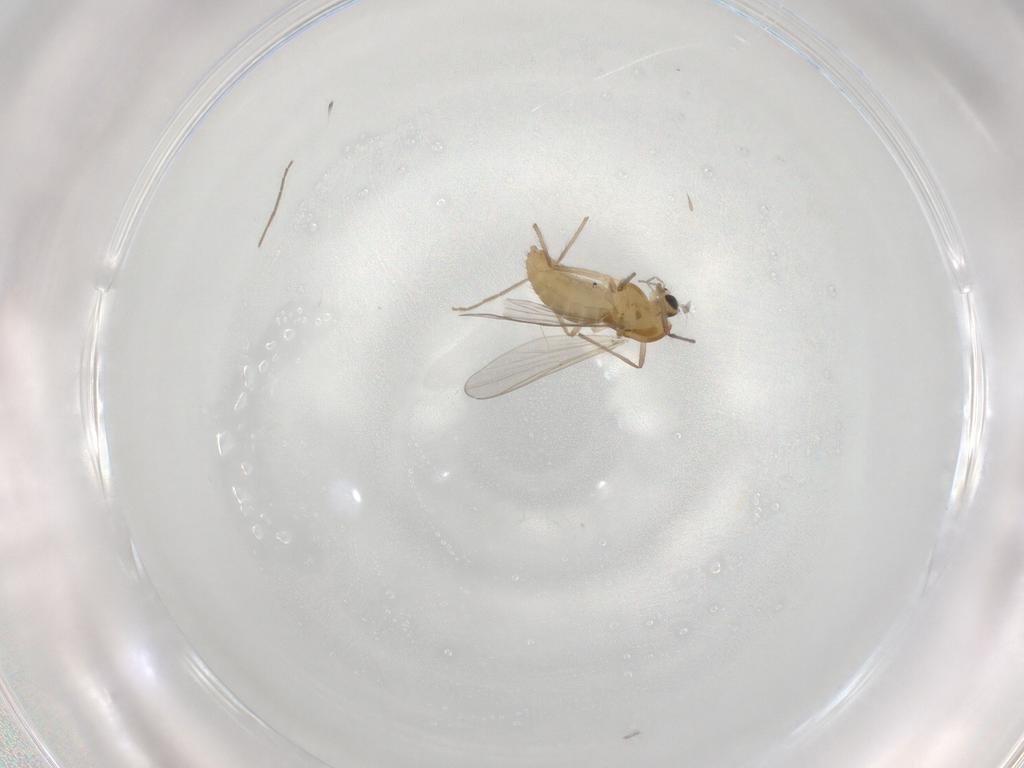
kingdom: Animalia
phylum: Arthropoda
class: Insecta
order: Diptera
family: Chironomidae
